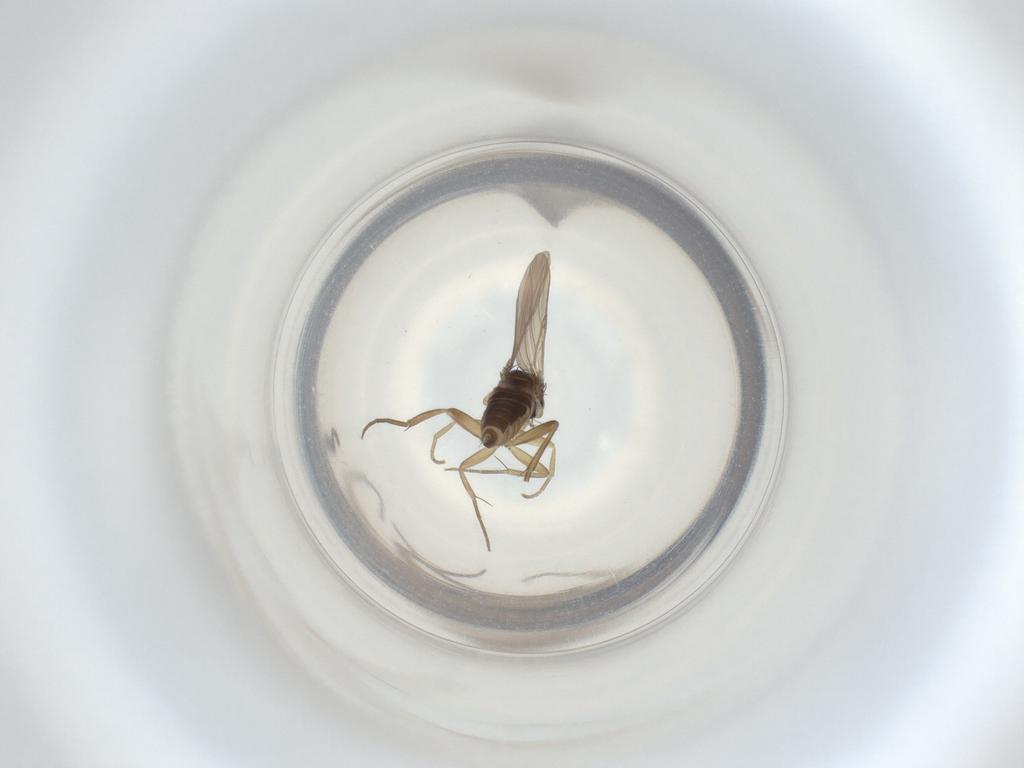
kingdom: Animalia
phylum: Arthropoda
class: Insecta
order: Diptera
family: Phoridae
